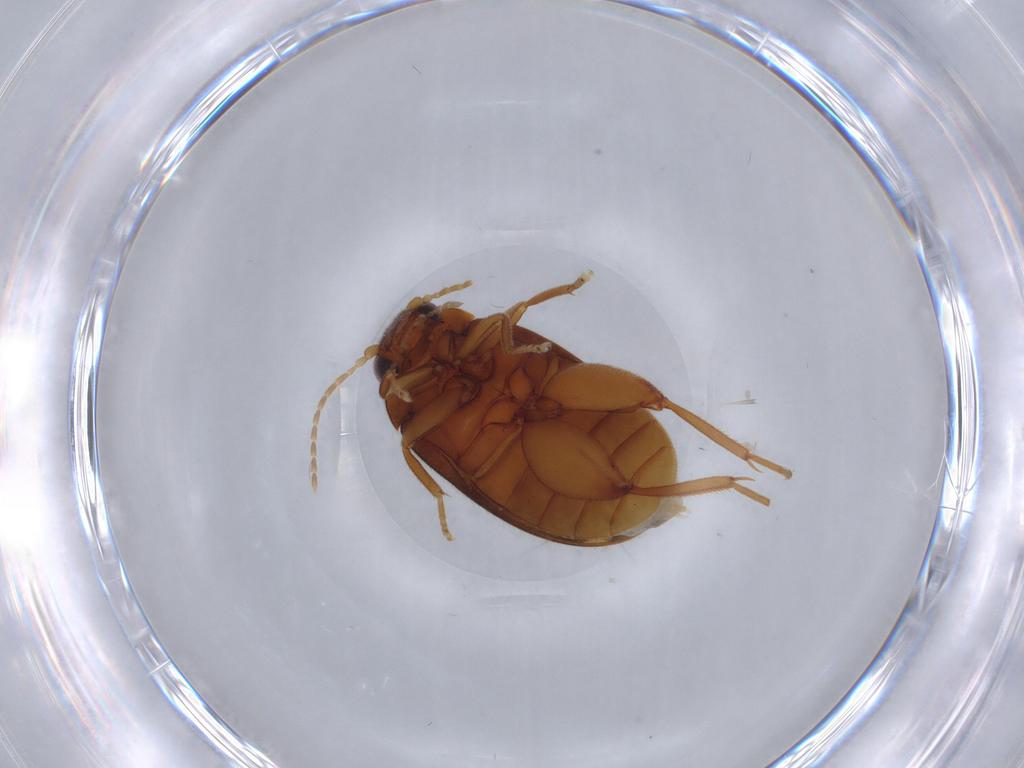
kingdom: Animalia
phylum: Arthropoda
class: Insecta
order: Coleoptera
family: Scirtidae
